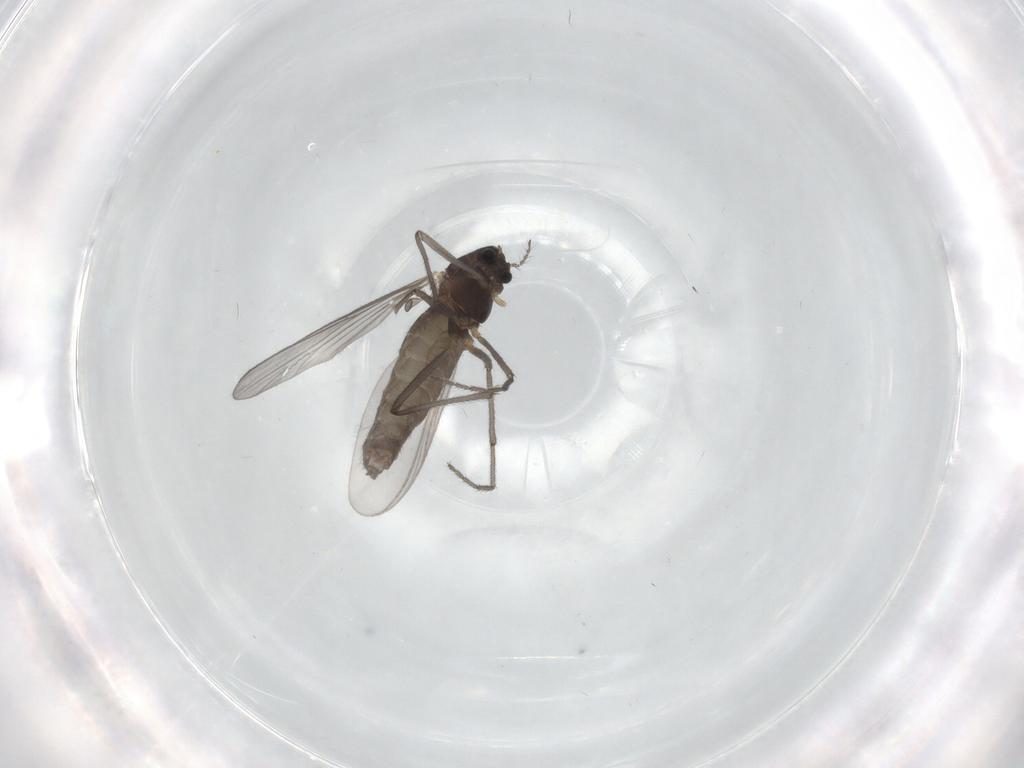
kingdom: Animalia
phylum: Arthropoda
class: Insecta
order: Diptera
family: Chironomidae
